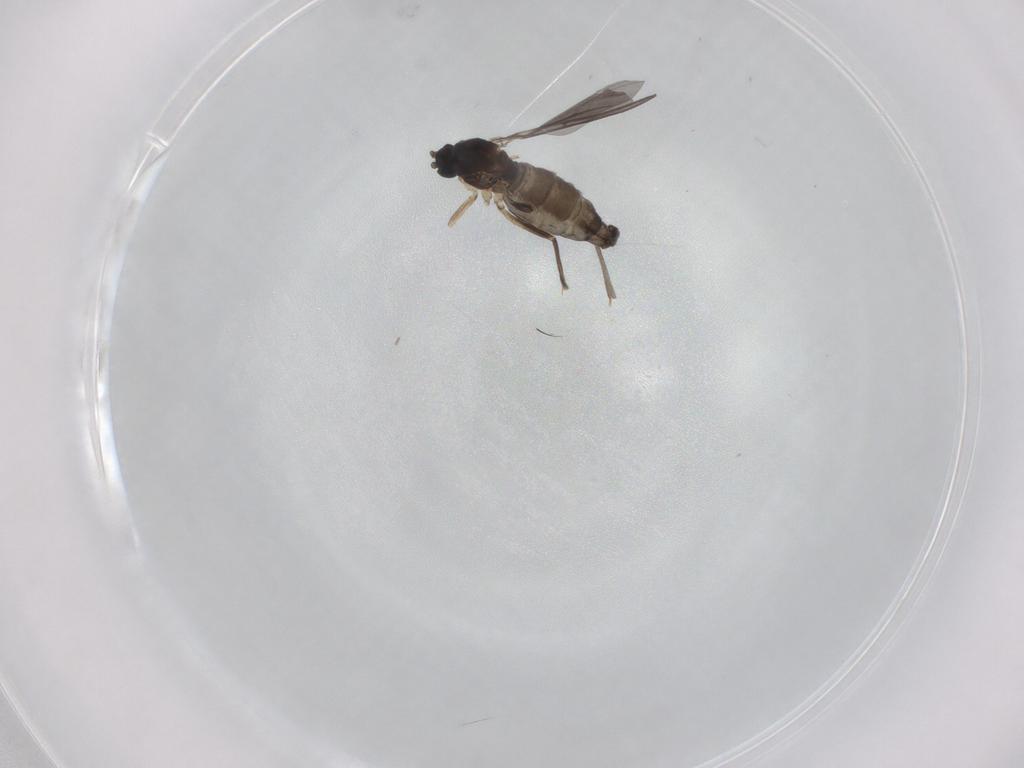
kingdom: Animalia
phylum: Arthropoda
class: Insecta
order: Diptera
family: Sciaridae
